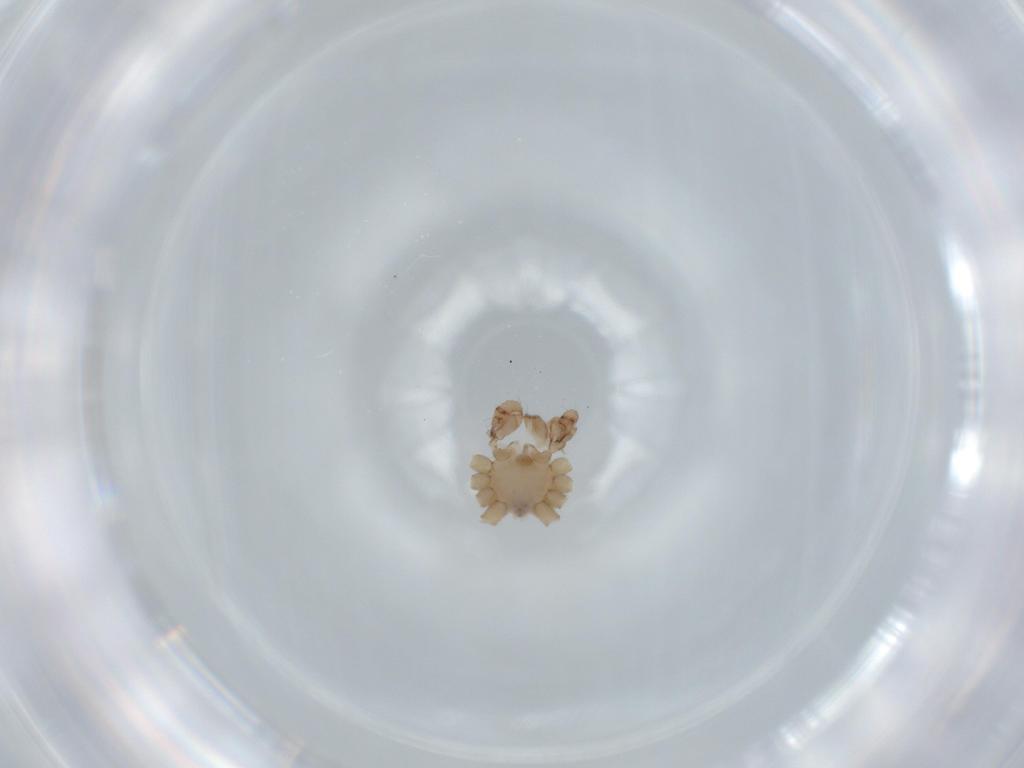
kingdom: Animalia
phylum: Arthropoda
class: Arachnida
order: Araneae
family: Pholcidae
